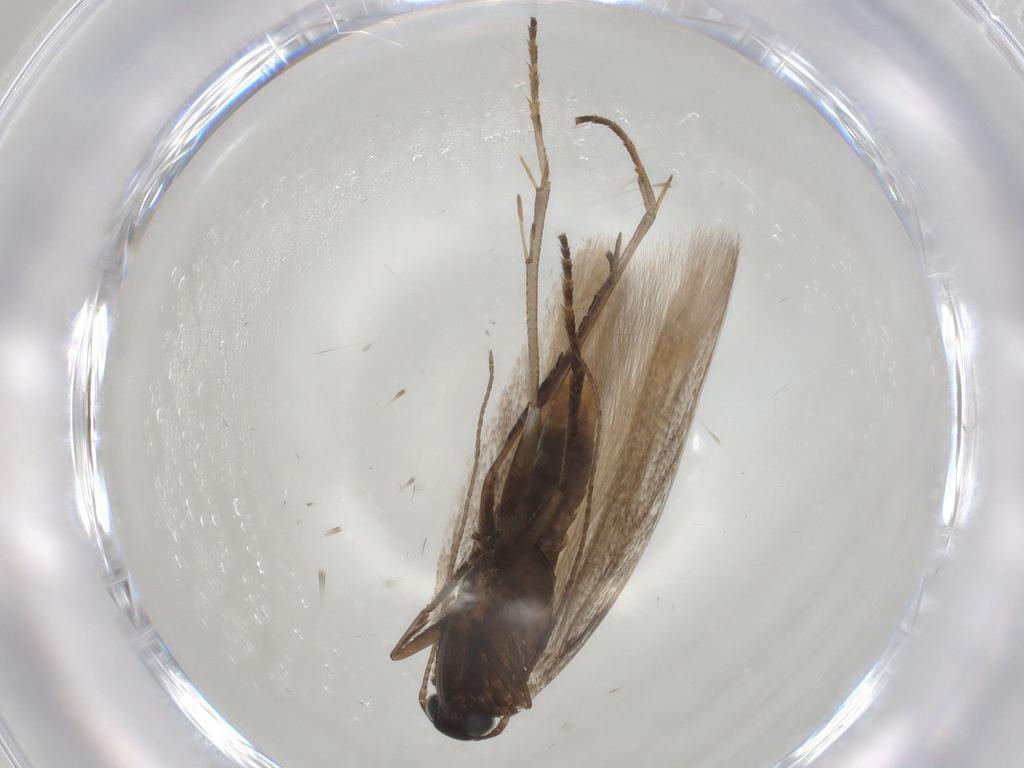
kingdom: Animalia
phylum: Arthropoda
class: Insecta
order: Lepidoptera
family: Gelechiidae
